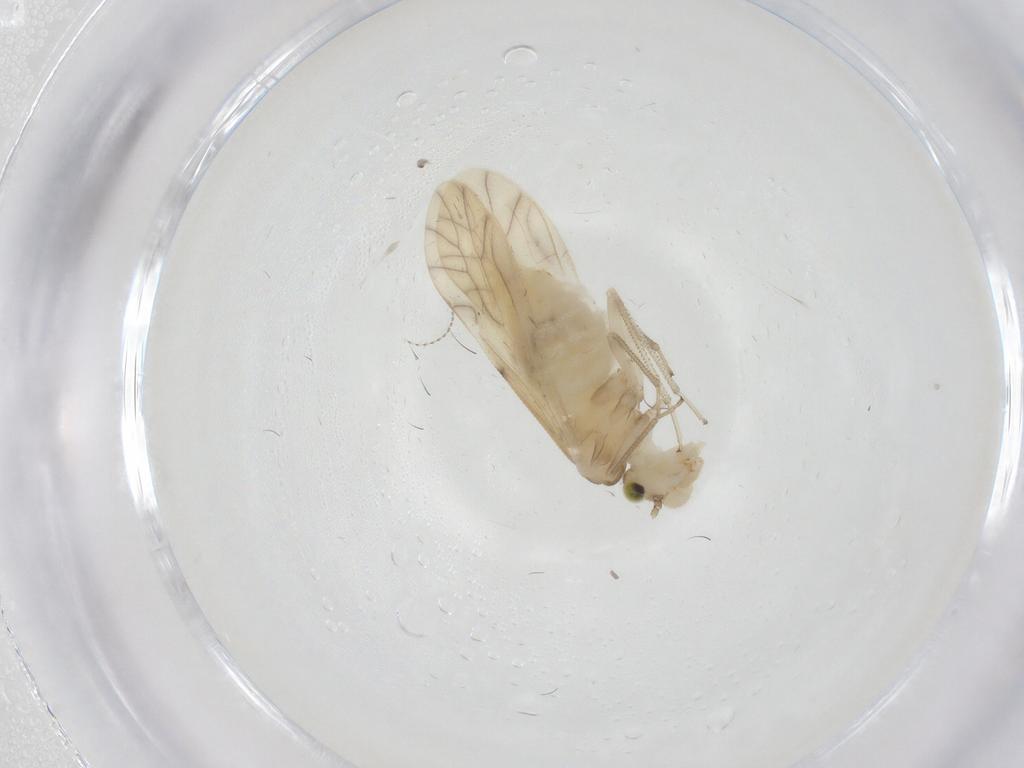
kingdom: Animalia
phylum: Arthropoda
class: Insecta
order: Psocodea
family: Caeciliusidae
